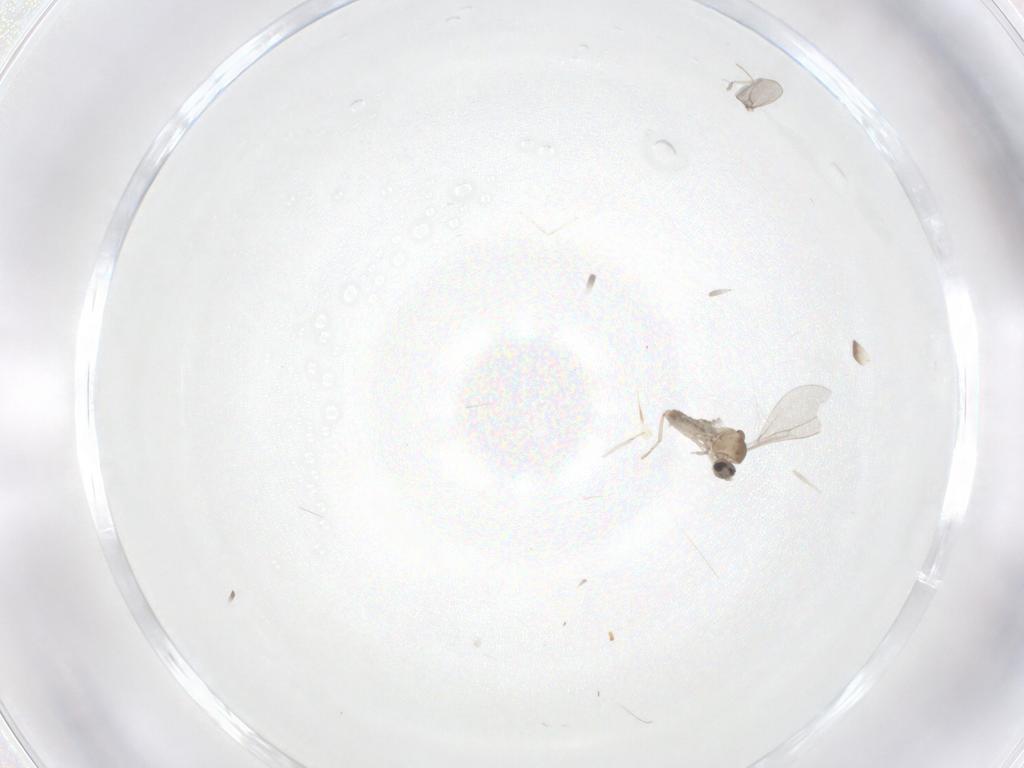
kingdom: Animalia
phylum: Arthropoda
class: Insecta
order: Diptera
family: Cecidomyiidae
